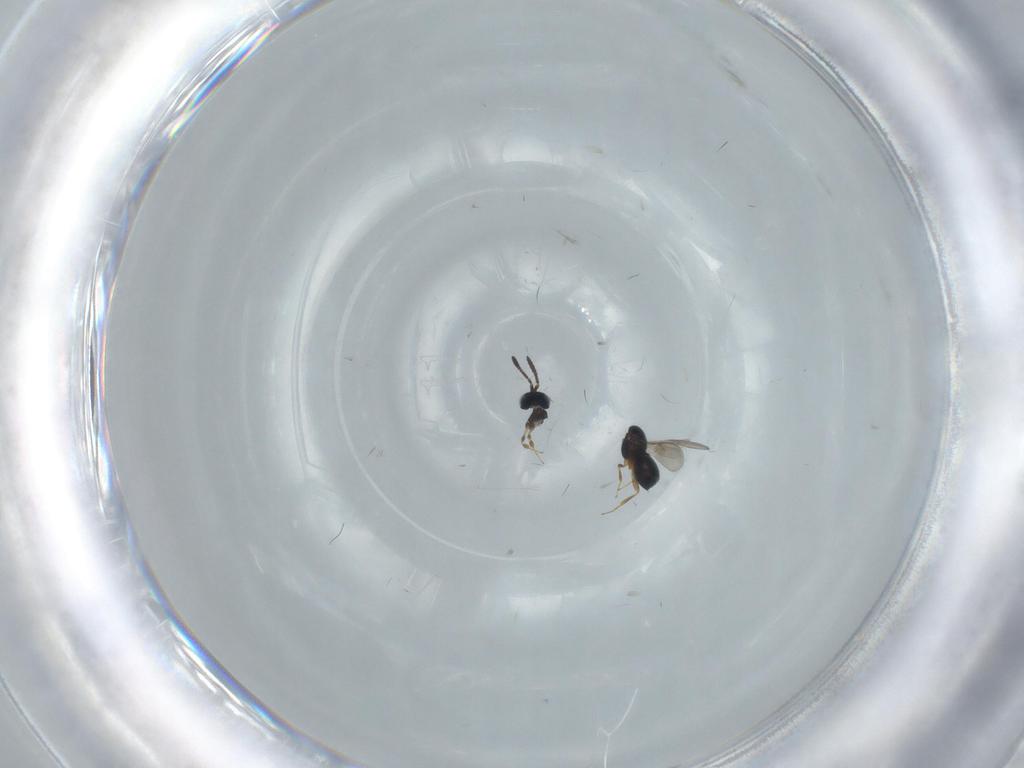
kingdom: Animalia
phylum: Arthropoda
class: Insecta
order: Hymenoptera
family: Scelionidae
